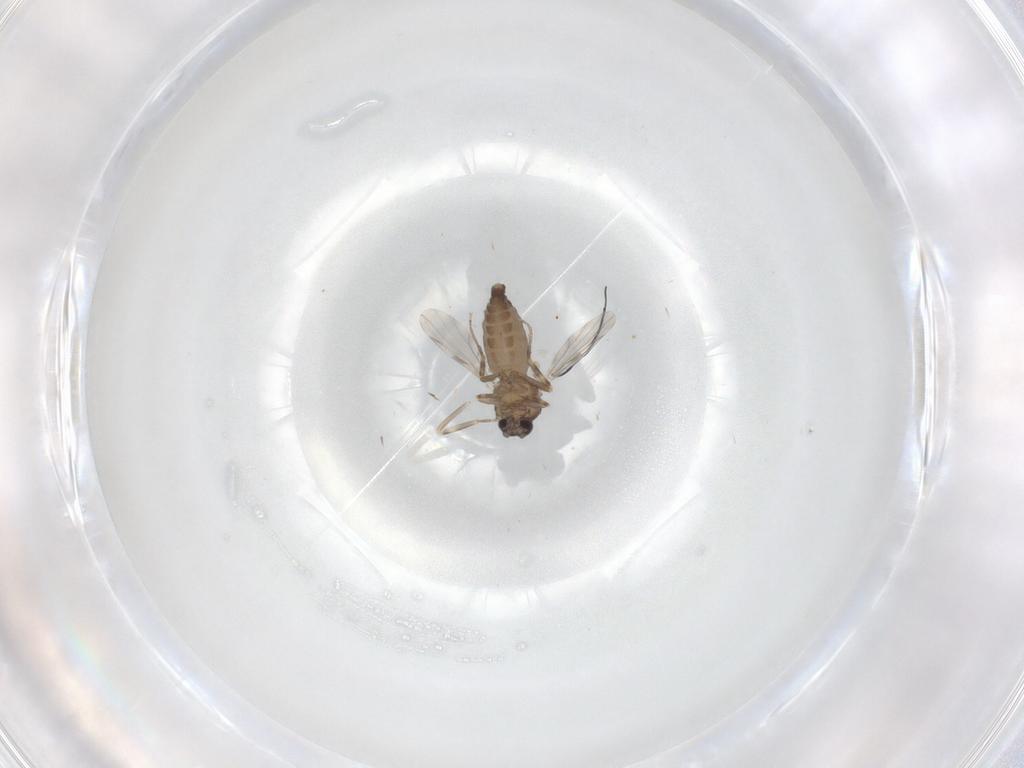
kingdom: Animalia
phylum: Arthropoda
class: Insecta
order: Diptera
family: Ceratopogonidae
